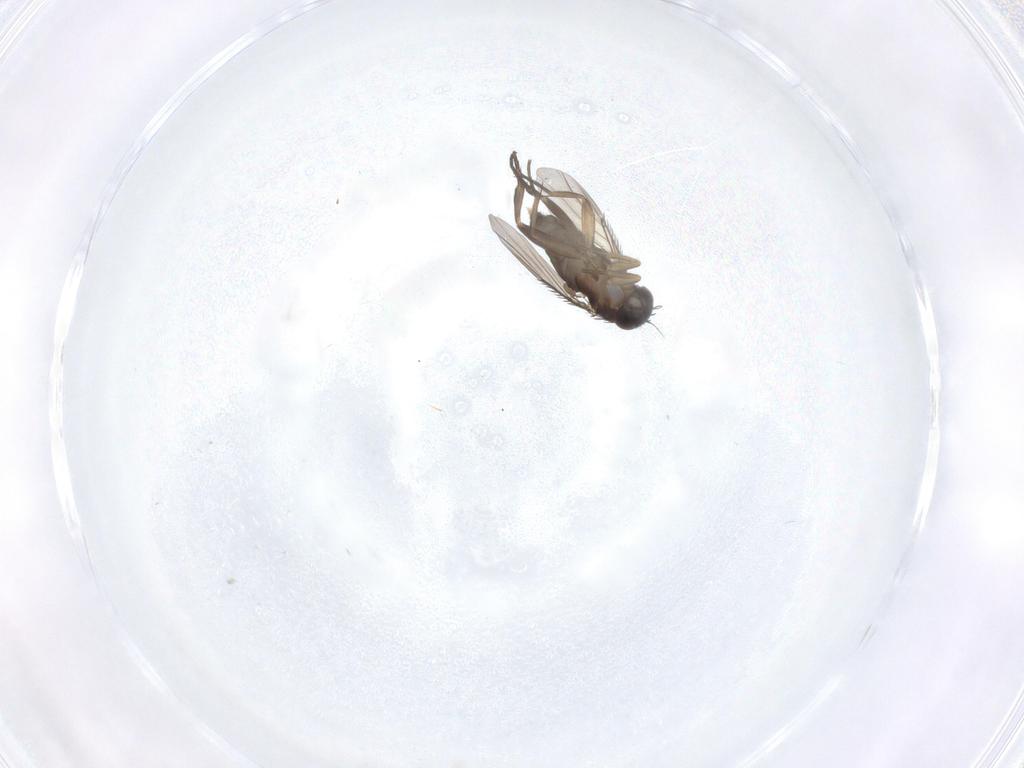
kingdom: Animalia
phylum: Arthropoda
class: Insecta
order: Diptera
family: Phoridae
